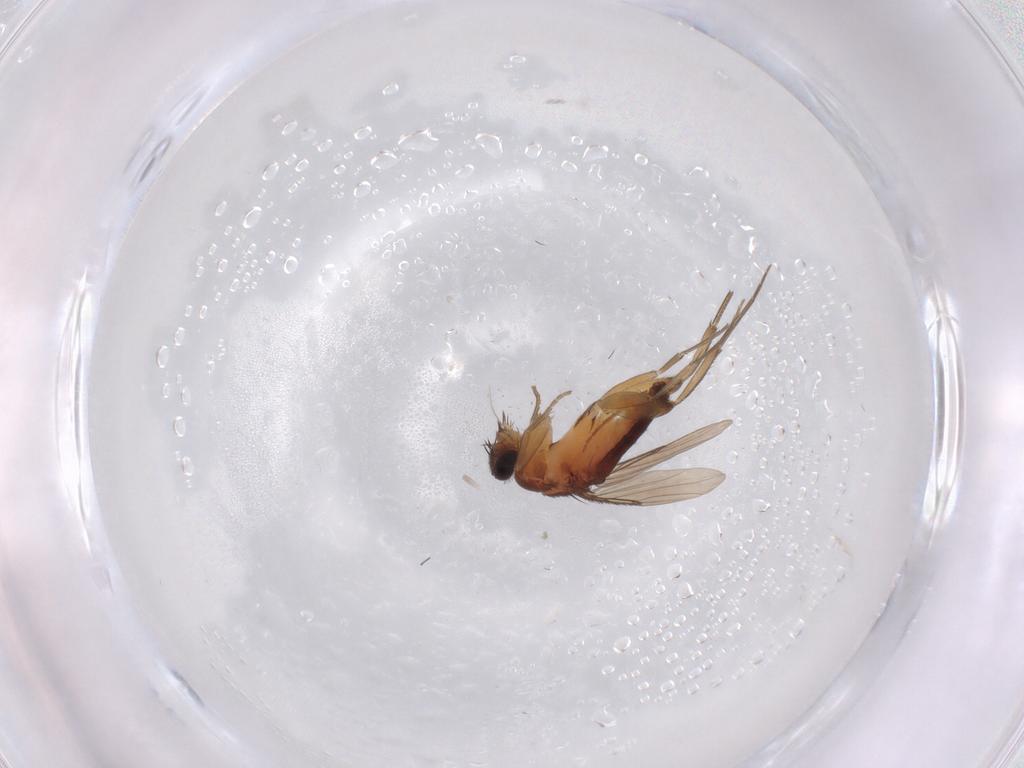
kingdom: Animalia
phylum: Arthropoda
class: Insecta
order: Diptera
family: Phoridae
